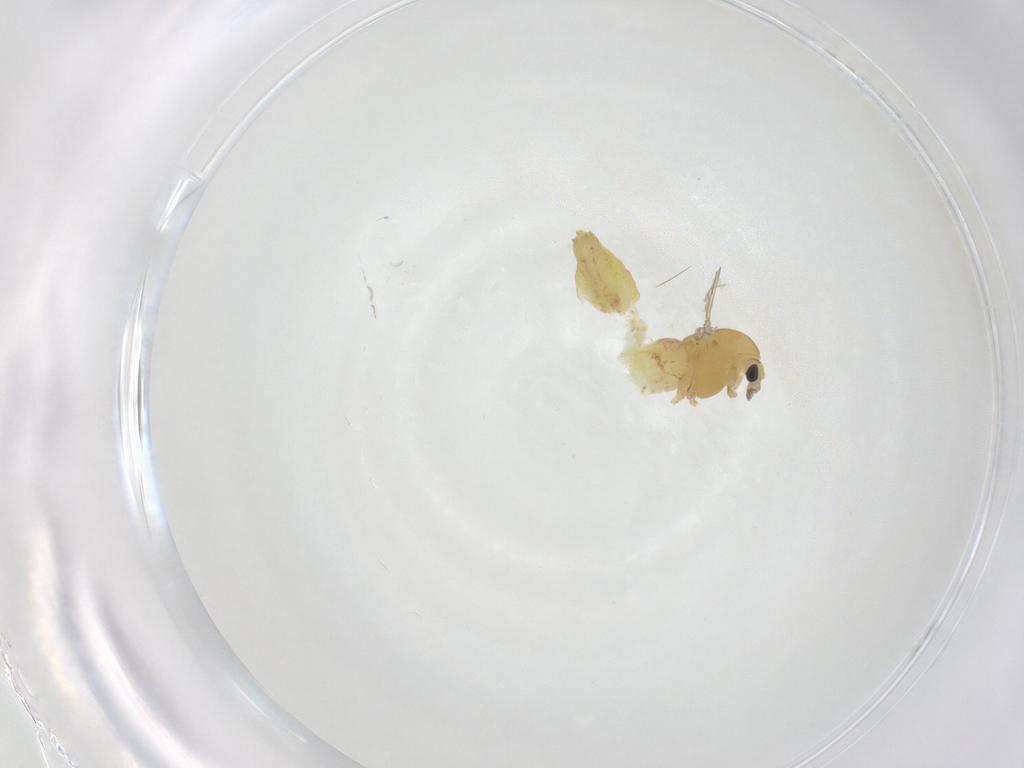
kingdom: Animalia
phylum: Arthropoda
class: Insecta
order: Diptera
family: Chironomidae
